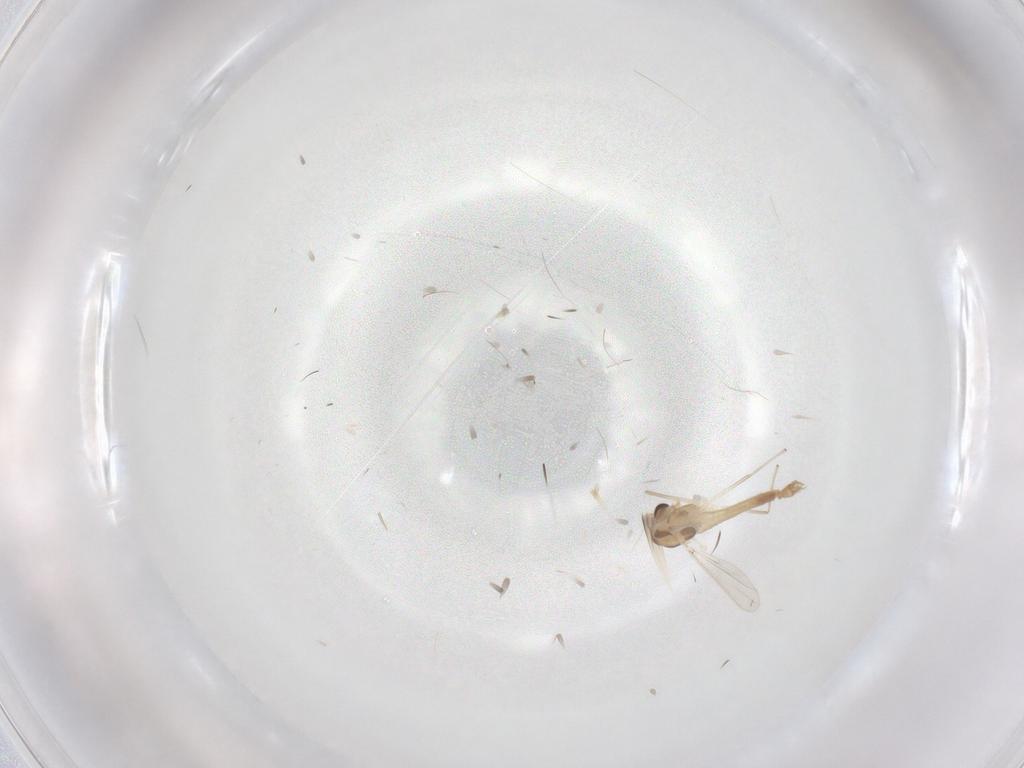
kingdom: Animalia
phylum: Arthropoda
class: Insecta
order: Diptera
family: Chironomidae
